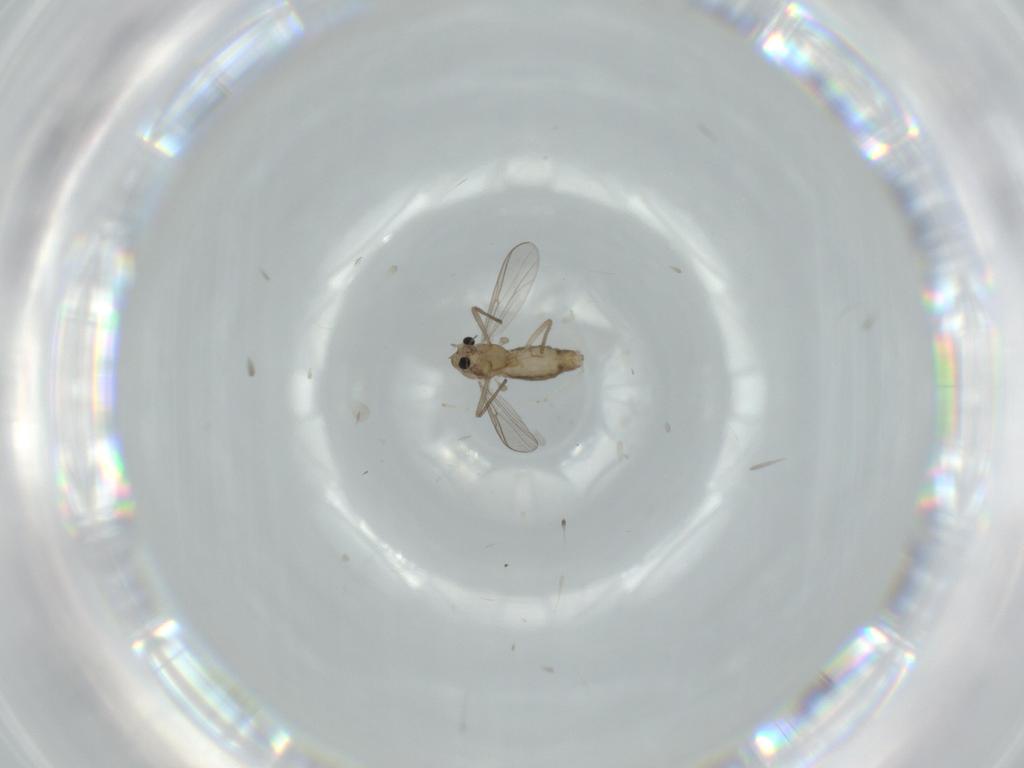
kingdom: Animalia
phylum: Arthropoda
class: Insecta
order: Diptera
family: Chironomidae
